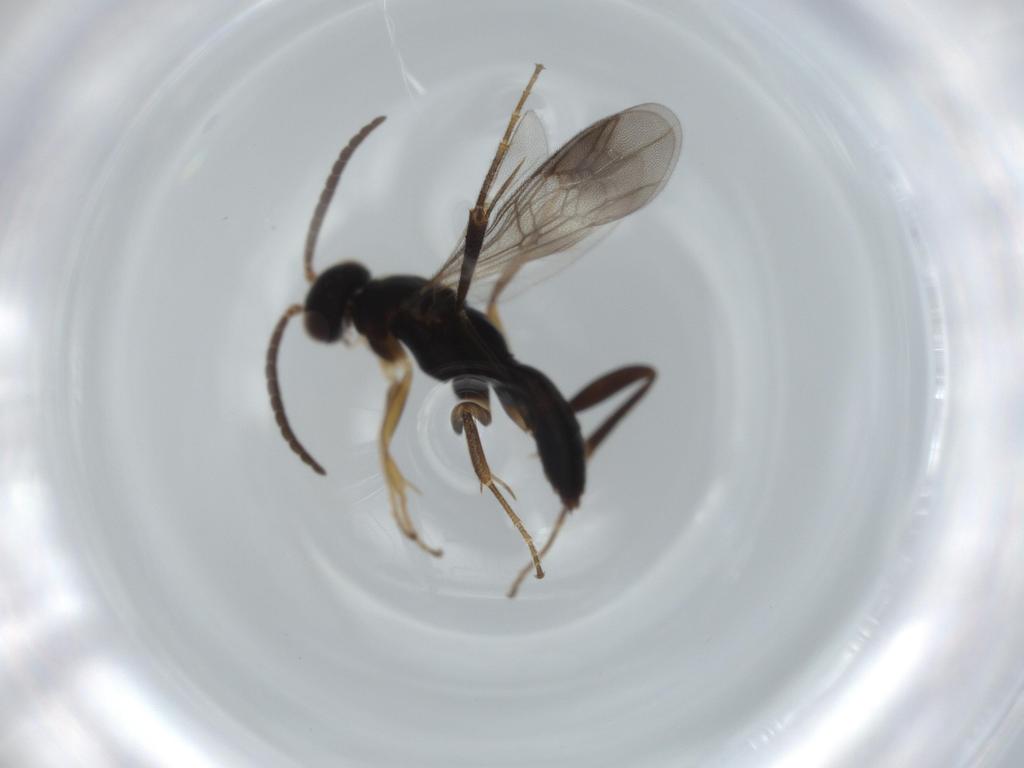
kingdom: Animalia
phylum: Arthropoda
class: Insecta
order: Hymenoptera
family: Pompilidae
